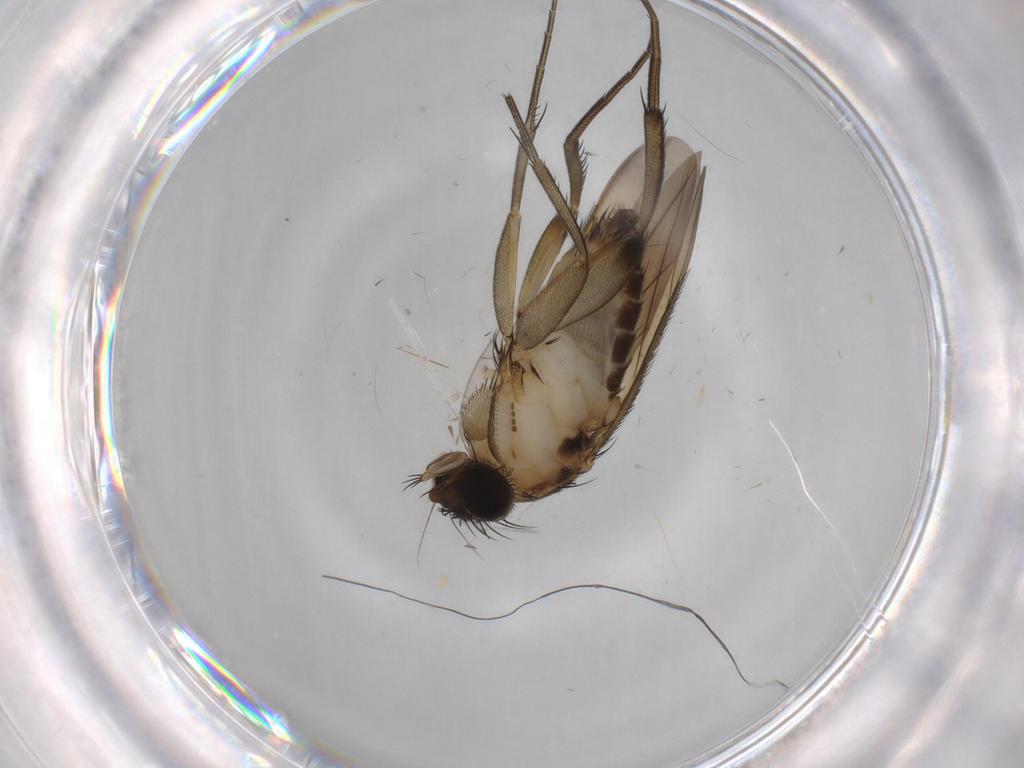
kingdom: Animalia
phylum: Arthropoda
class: Insecta
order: Diptera
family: Phoridae
